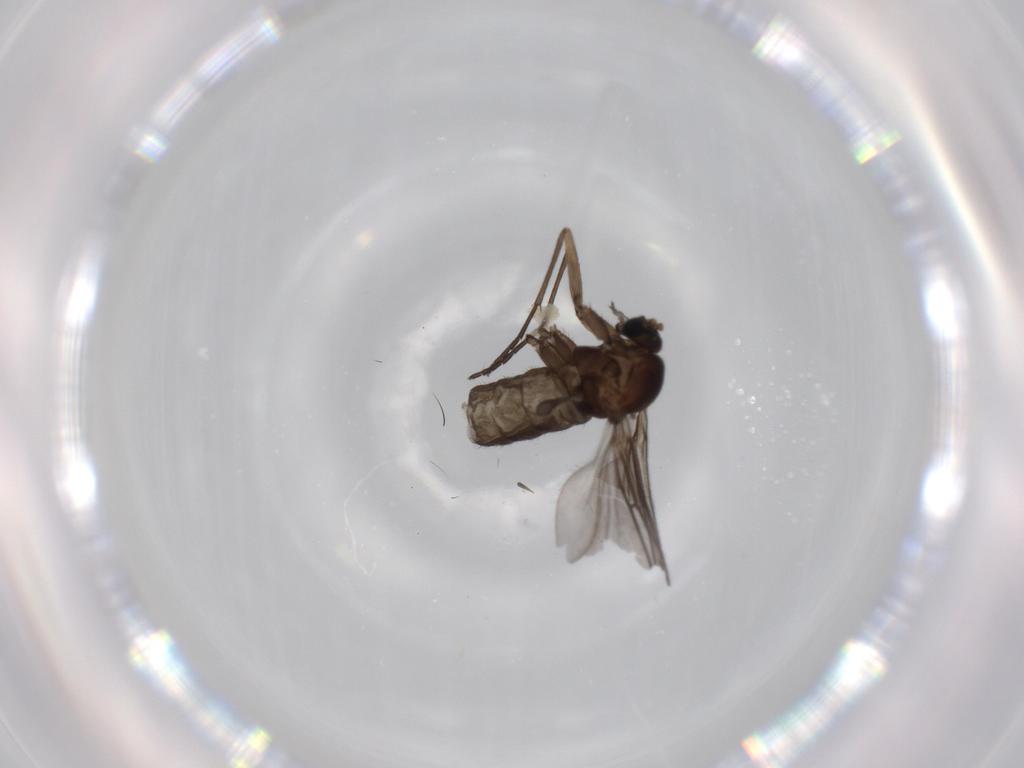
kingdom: Animalia
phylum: Arthropoda
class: Insecta
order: Diptera
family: Sciaridae
